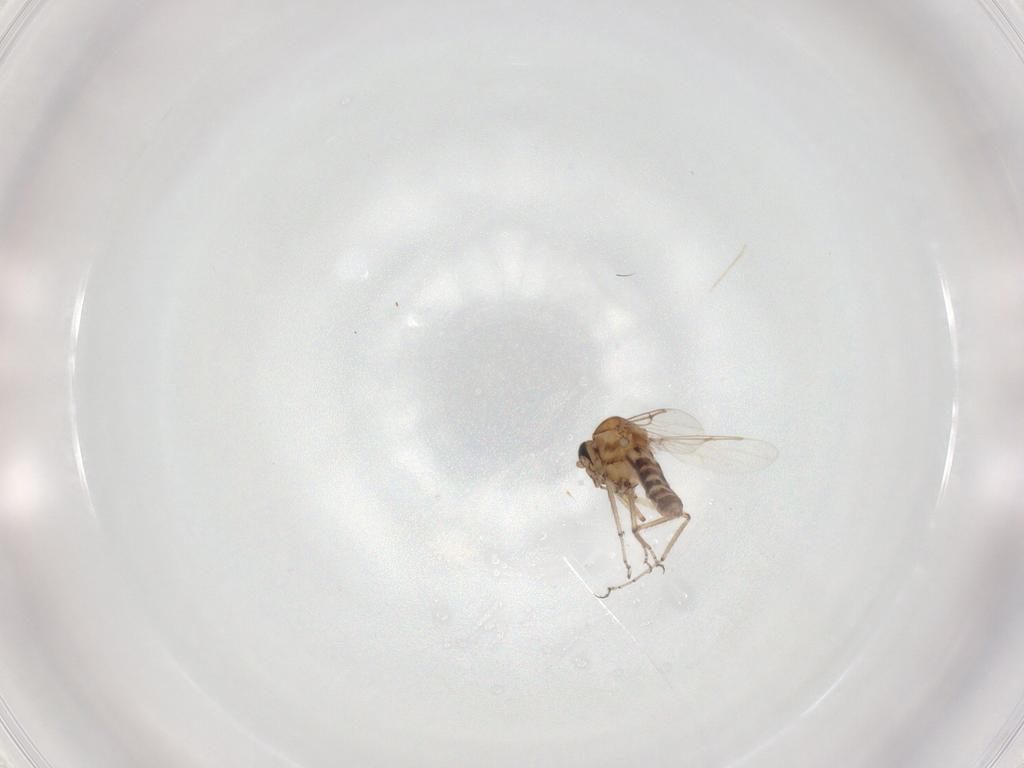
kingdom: Animalia
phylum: Arthropoda
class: Insecta
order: Diptera
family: Ceratopogonidae
